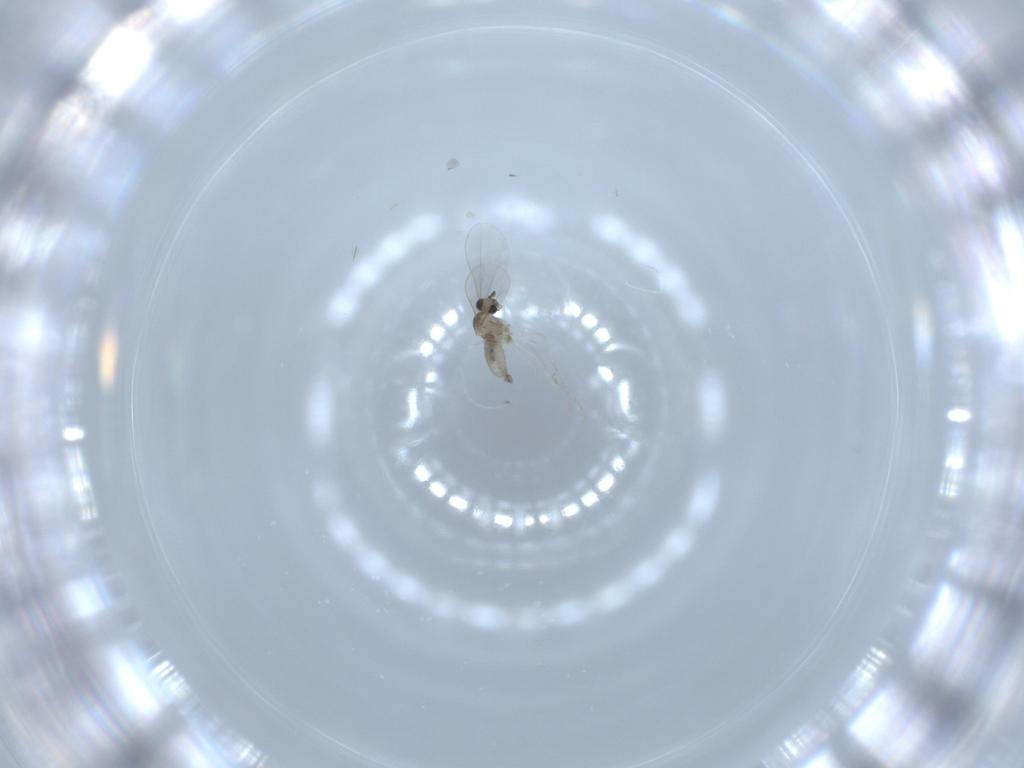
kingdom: Animalia
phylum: Arthropoda
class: Insecta
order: Diptera
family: Cecidomyiidae
